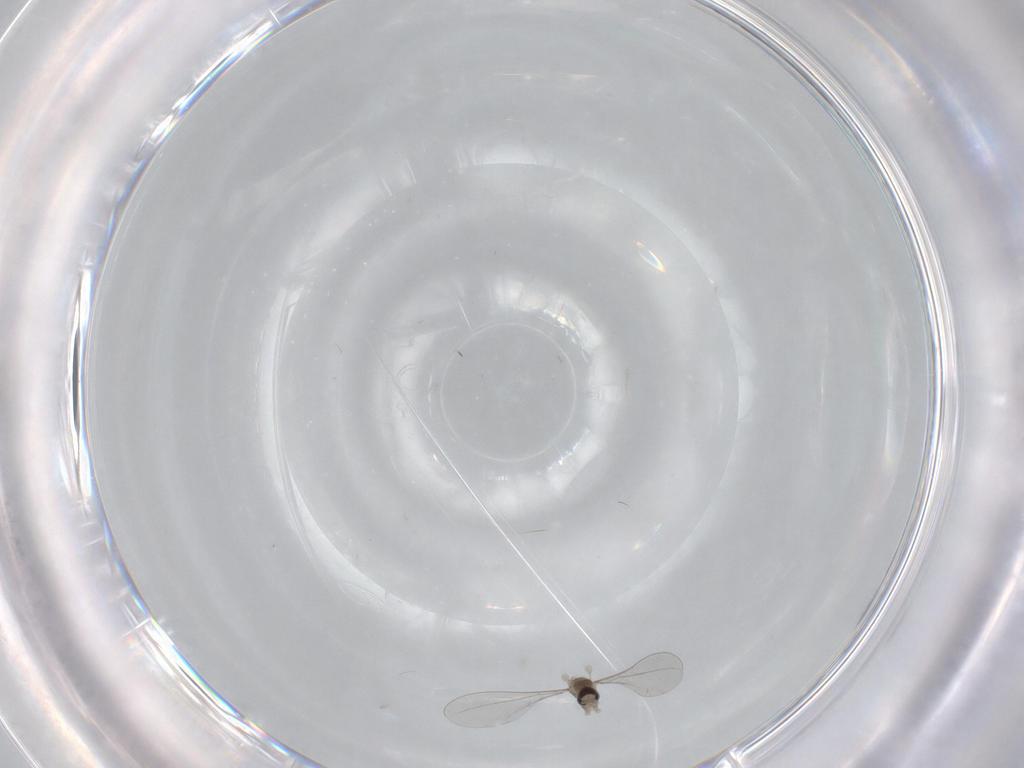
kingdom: Animalia
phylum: Arthropoda
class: Insecta
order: Diptera
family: Cecidomyiidae
